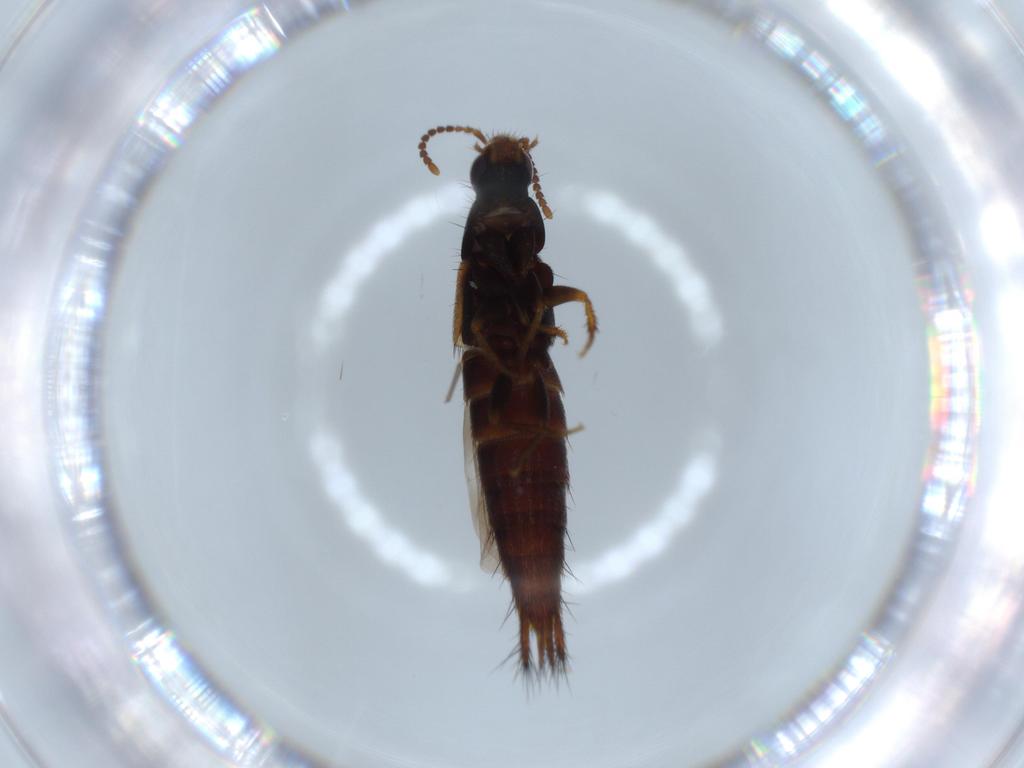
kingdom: Animalia
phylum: Arthropoda
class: Insecta
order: Coleoptera
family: Staphylinidae
